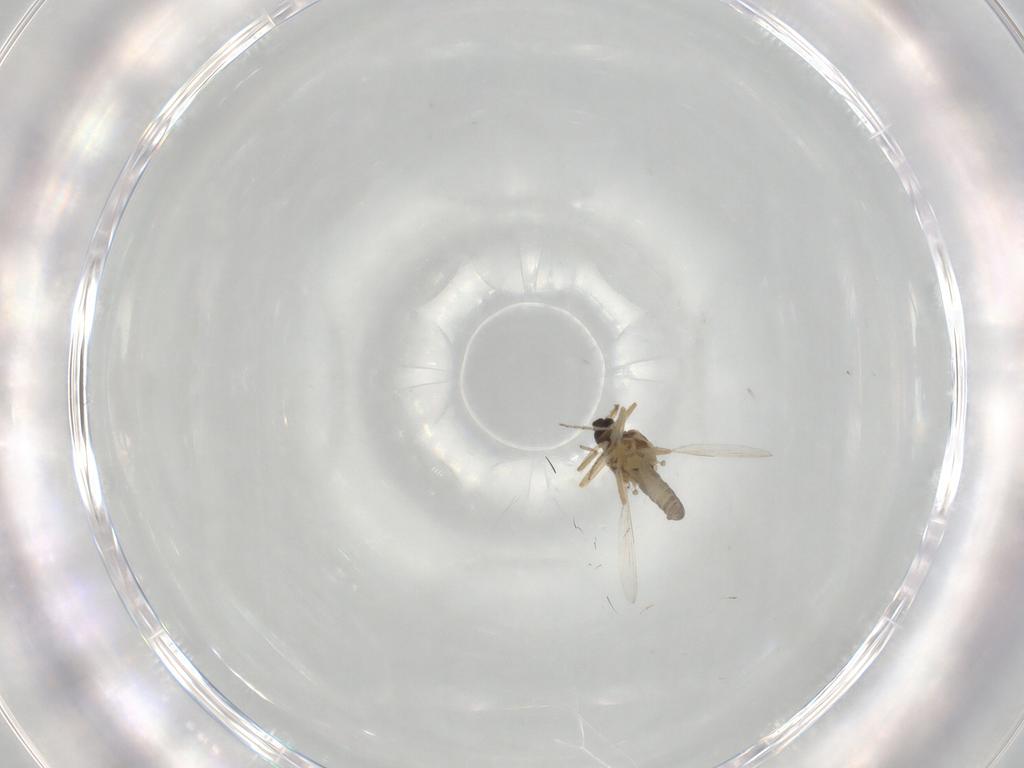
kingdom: Animalia
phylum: Arthropoda
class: Insecta
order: Diptera
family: Ceratopogonidae
